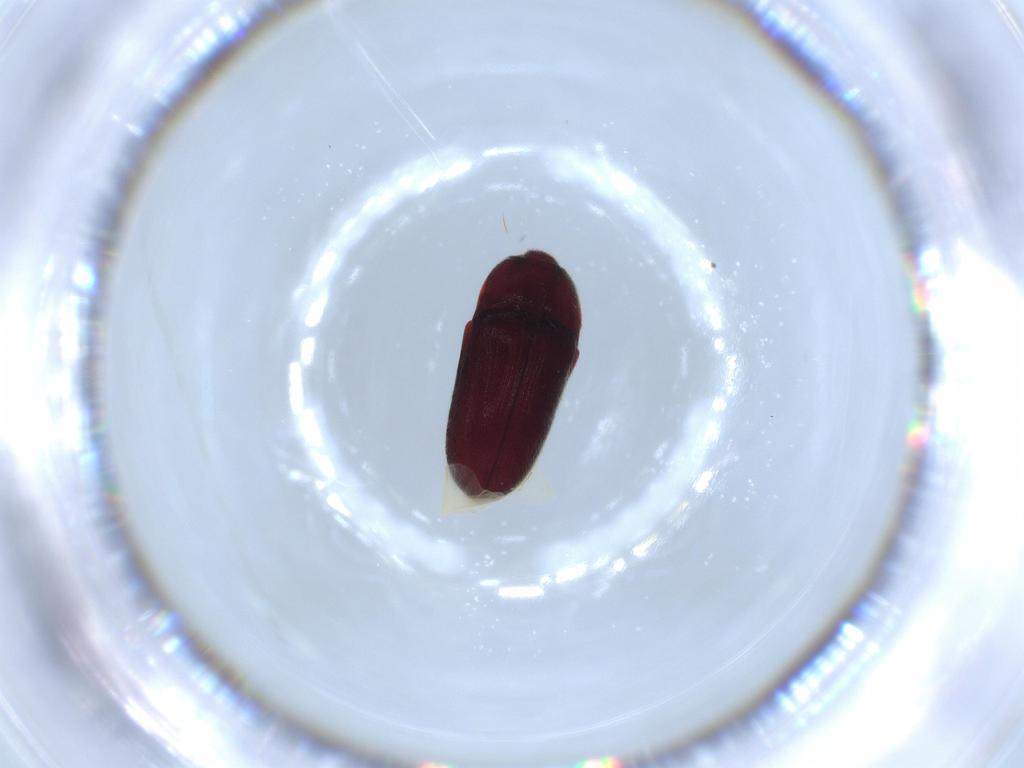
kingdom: Animalia
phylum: Arthropoda
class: Insecta
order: Coleoptera
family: Throscidae
